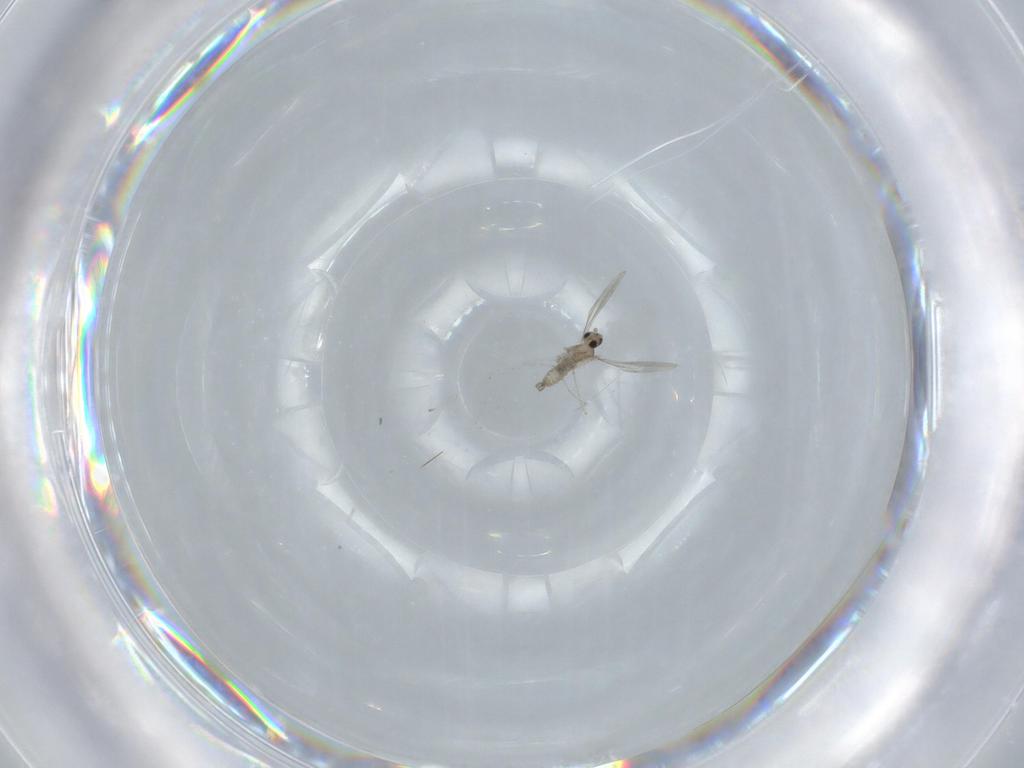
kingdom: Animalia
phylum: Arthropoda
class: Insecta
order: Diptera
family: Cecidomyiidae
